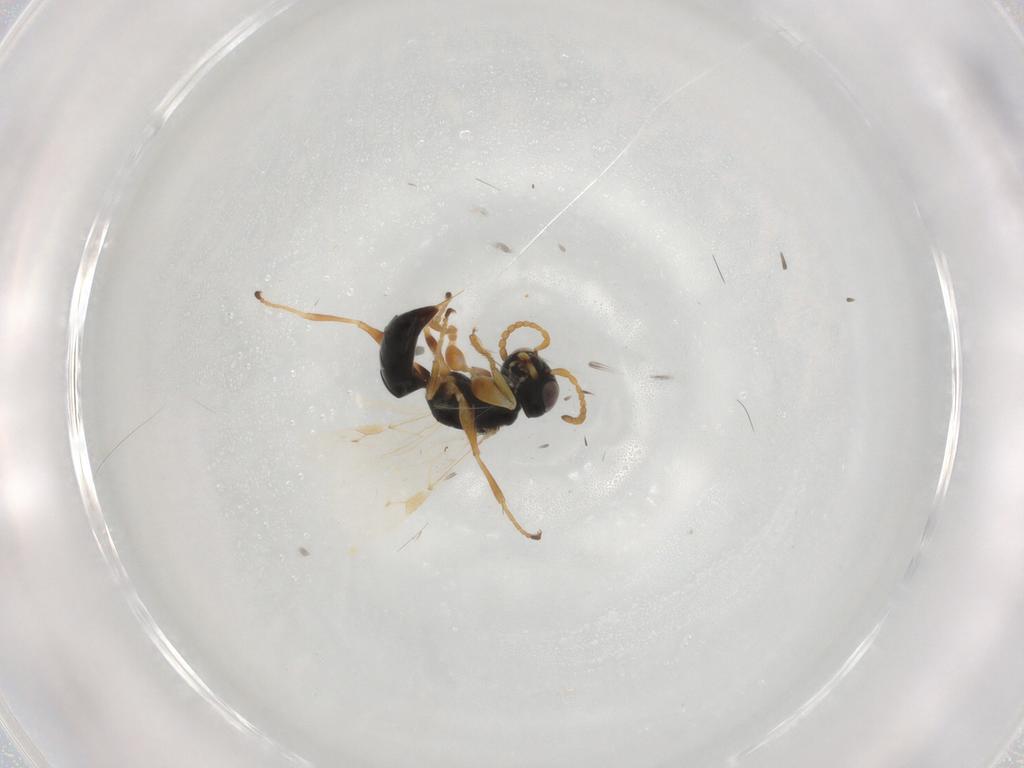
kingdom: Animalia
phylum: Arthropoda
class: Insecta
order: Hymenoptera
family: Dryinidae
